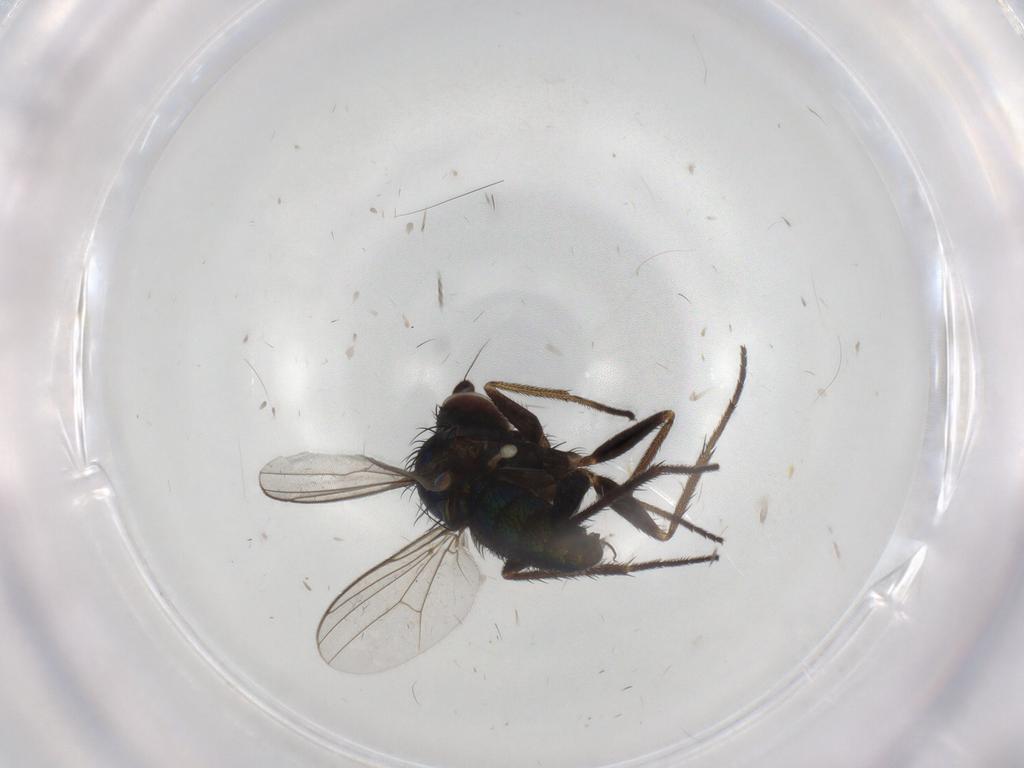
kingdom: Animalia
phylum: Arthropoda
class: Insecta
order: Diptera
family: Dolichopodidae
